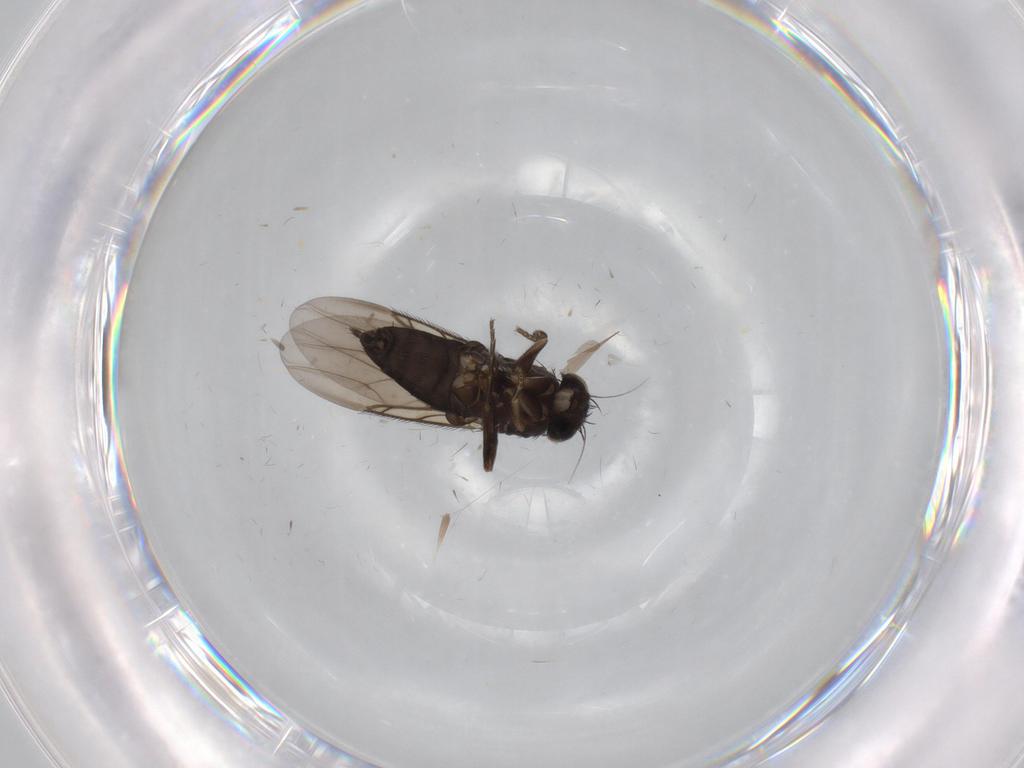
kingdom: Animalia
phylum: Arthropoda
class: Insecta
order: Diptera
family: Phoridae
